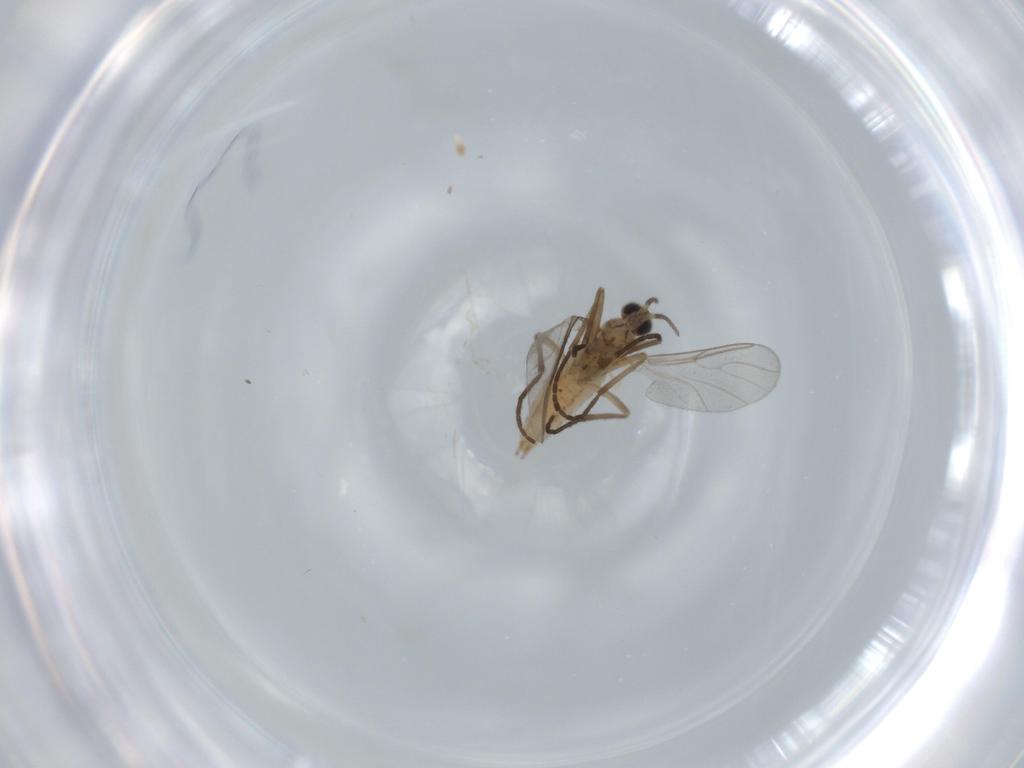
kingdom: Animalia
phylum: Arthropoda
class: Insecta
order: Diptera
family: Cecidomyiidae
